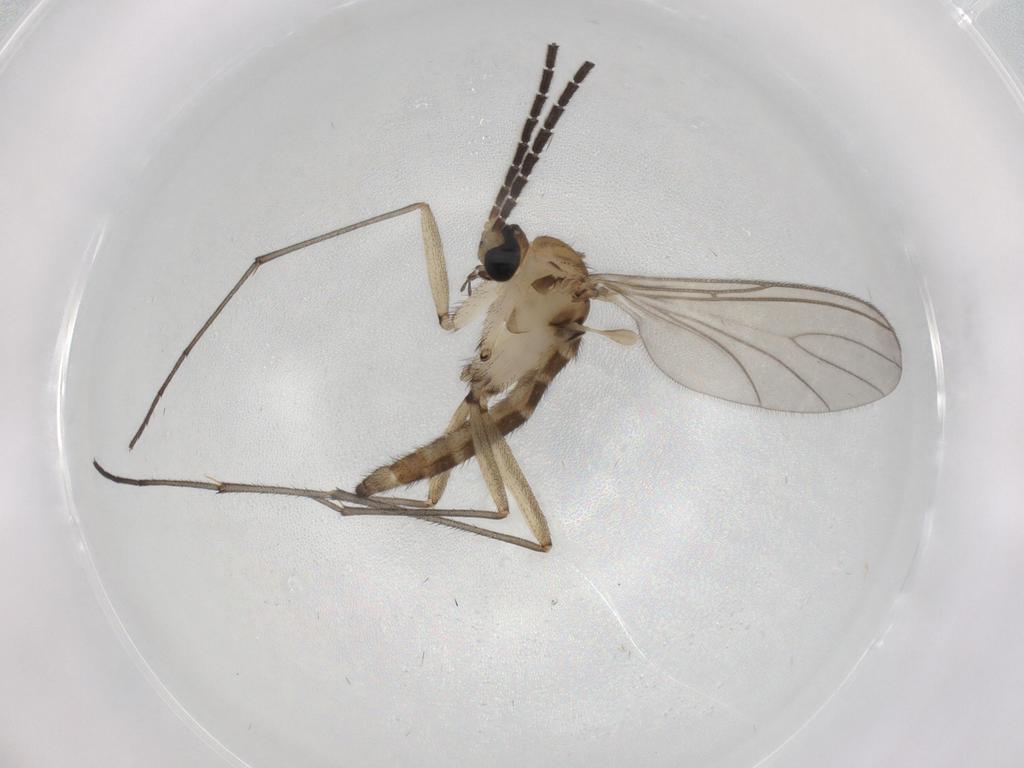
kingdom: Animalia
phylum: Arthropoda
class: Insecta
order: Diptera
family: Sciaridae
